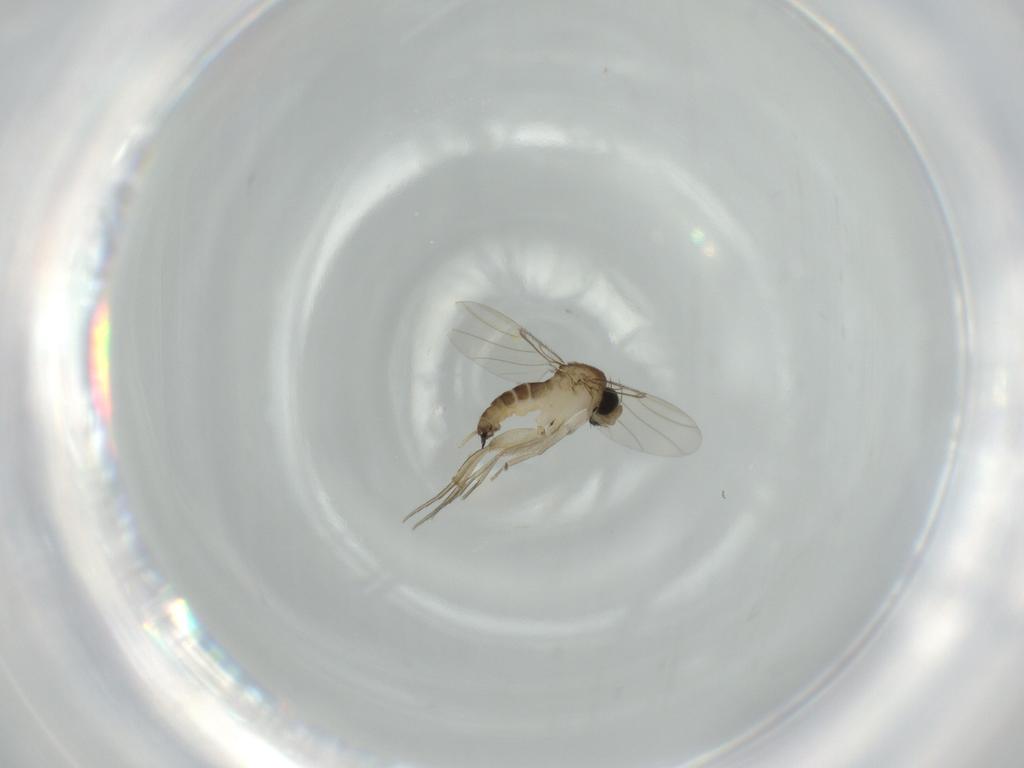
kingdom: Animalia
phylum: Arthropoda
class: Insecta
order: Diptera
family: Phoridae
